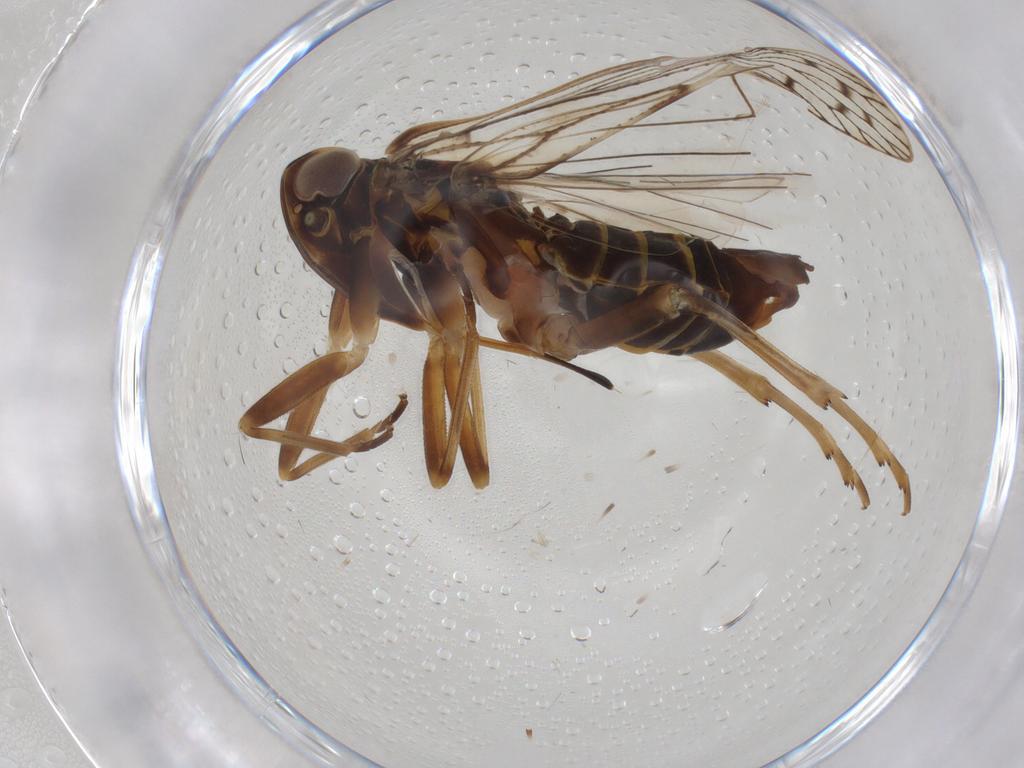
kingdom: Animalia
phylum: Arthropoda
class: Insecta
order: Hemiptera
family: Cixiidae
